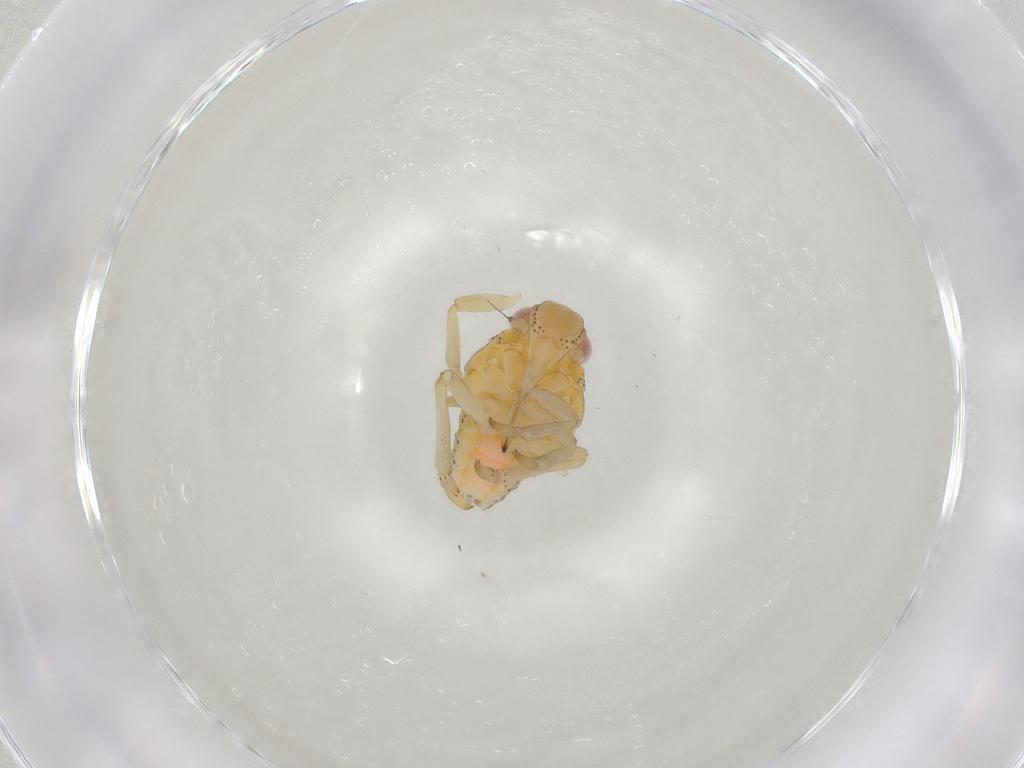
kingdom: Animalia
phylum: Arthropoda
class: Insecta
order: Hemiptera
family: Tropiduchidae
